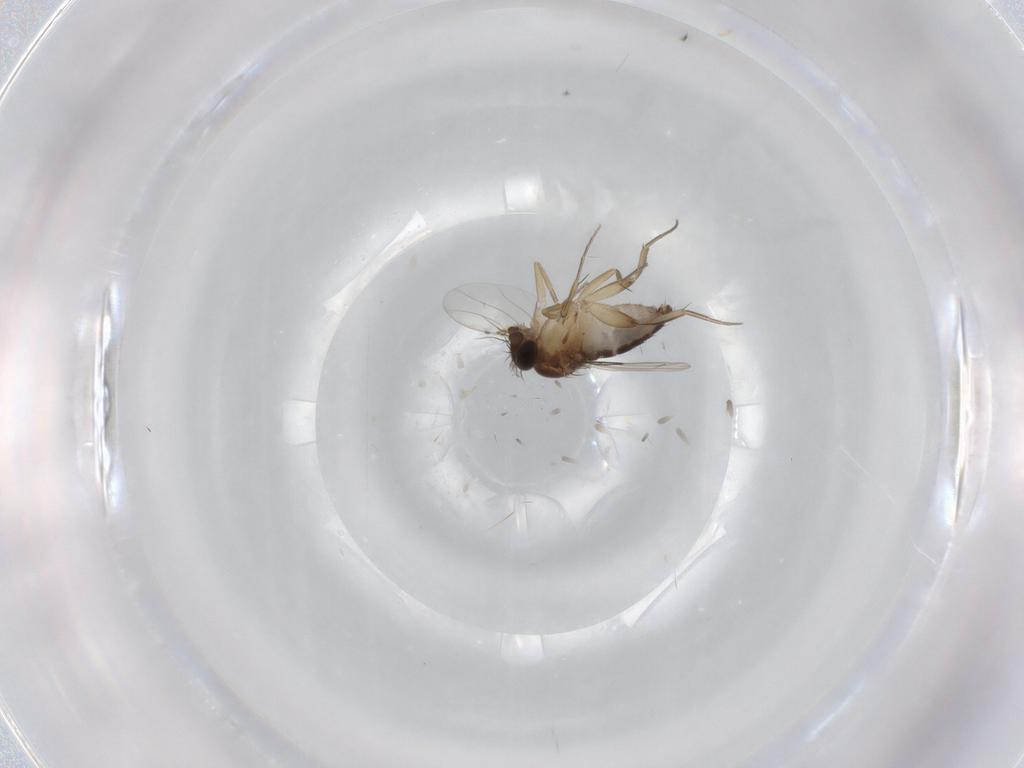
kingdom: Animalia
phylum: Arthropoda
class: Insecta
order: Diptera
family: Phoridae
